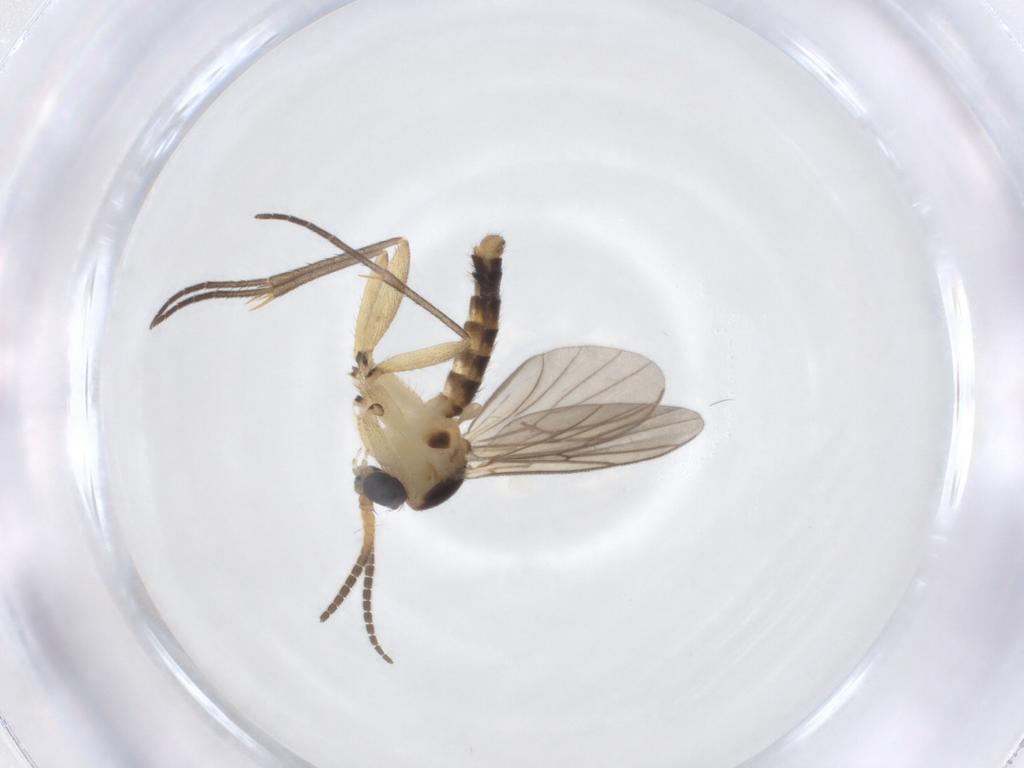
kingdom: Animalia
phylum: Arthropoda
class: Insecta
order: Diptera
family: Mycetophilidae
